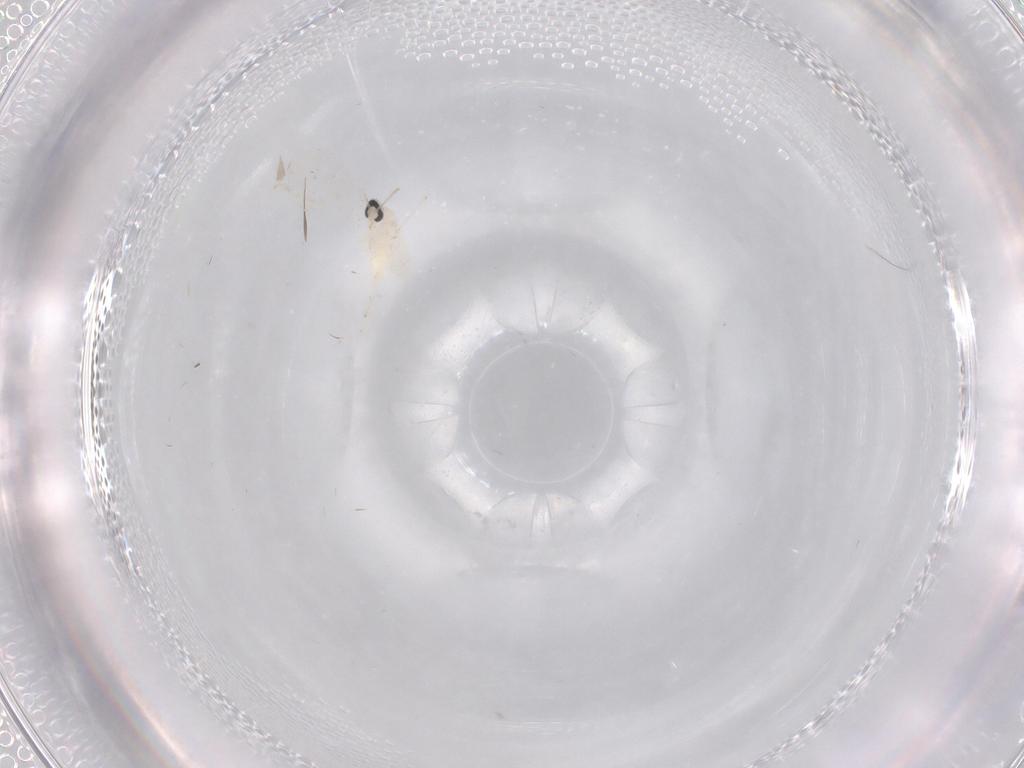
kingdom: Animalia
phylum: Arthropoda
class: Insecta
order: Diptera
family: Cecidomyiidae
